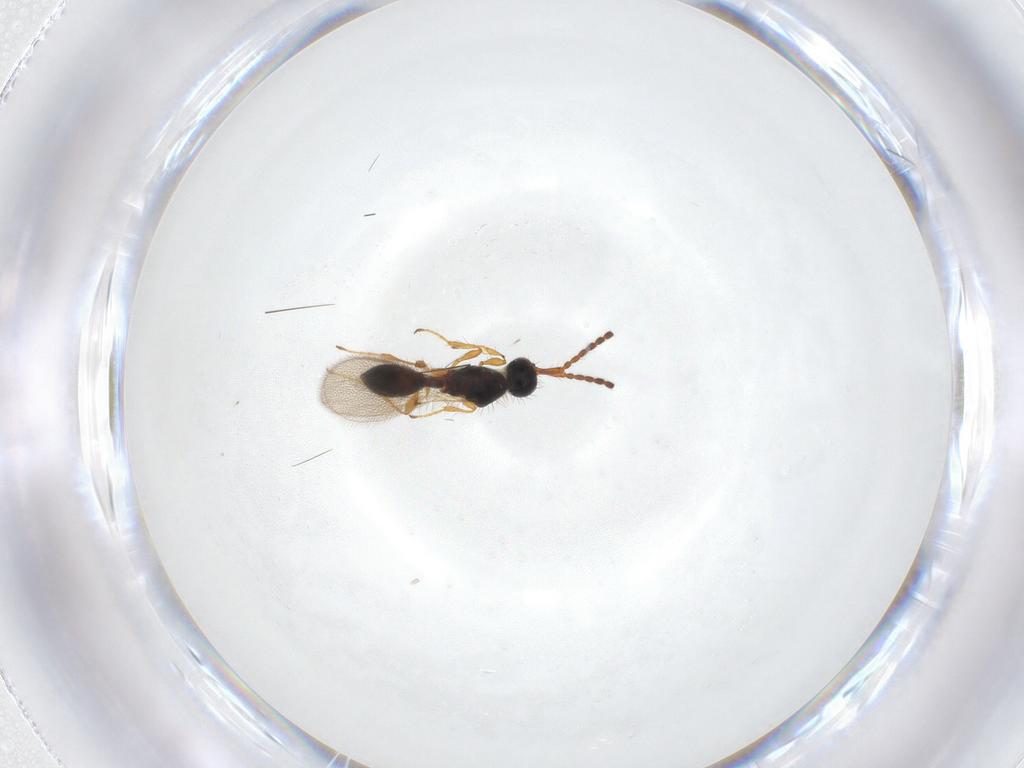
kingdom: Animalia
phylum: Arthropoda
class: Insecta
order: Hymenoptera
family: Diapriidae
